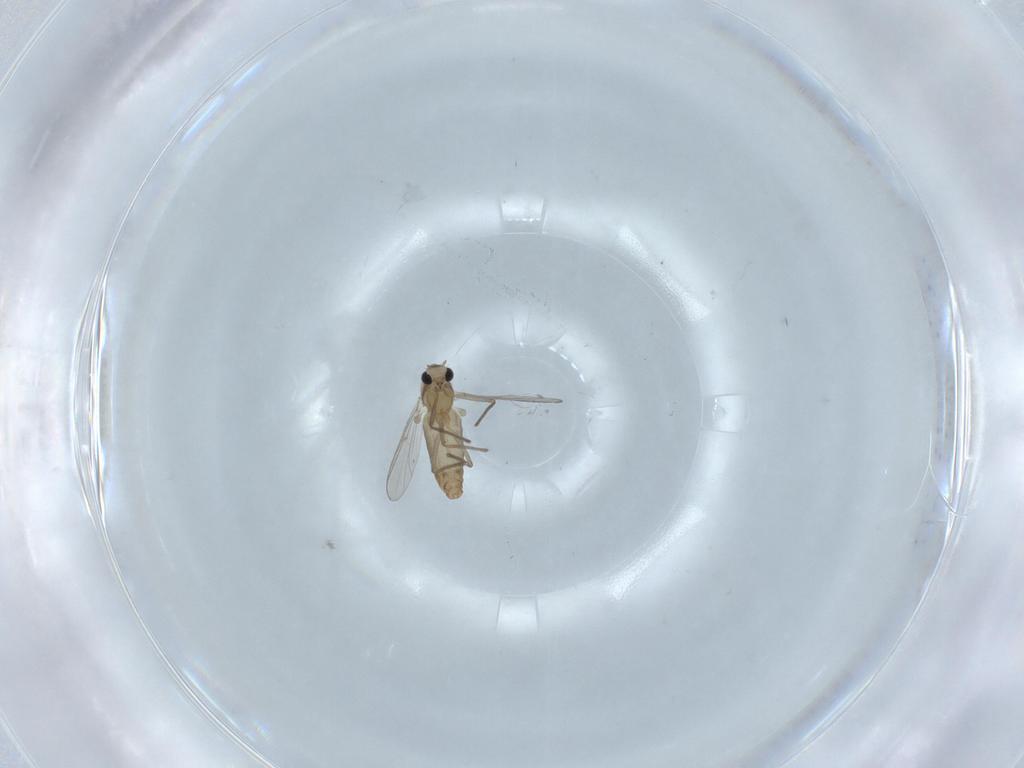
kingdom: Animalia
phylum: Arthropoda
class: Insecta
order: Diptera
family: Chironomidae
